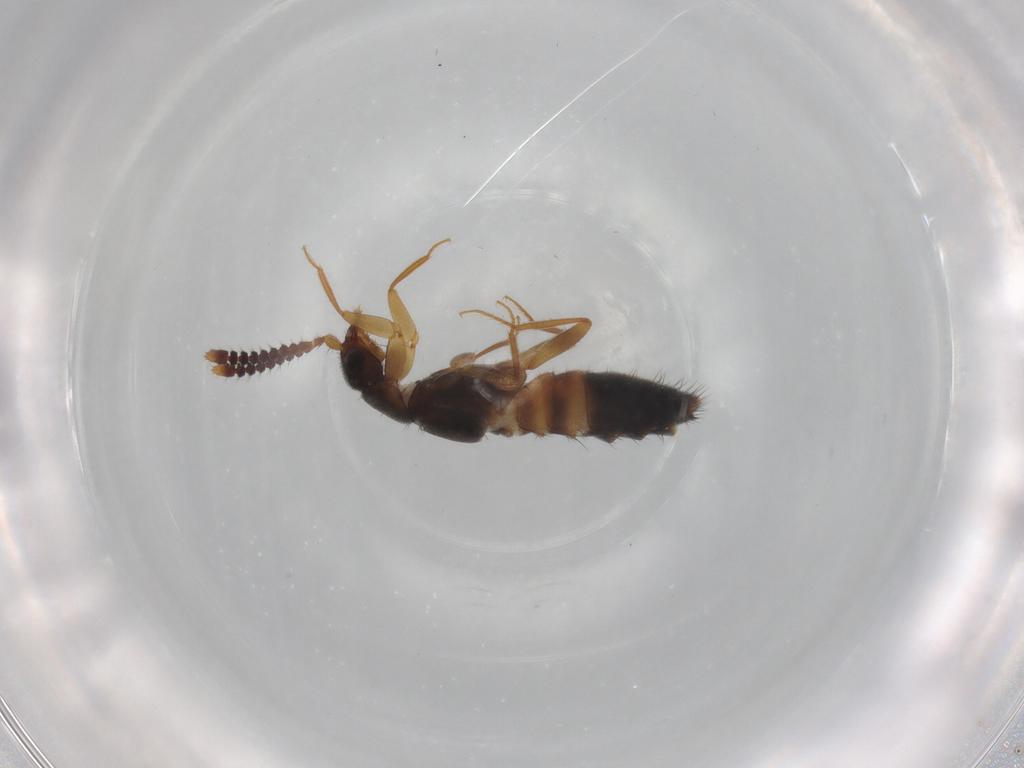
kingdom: Animalia
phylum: Arthropoda
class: Insecta
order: Coleoptera
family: Staphylinidae
